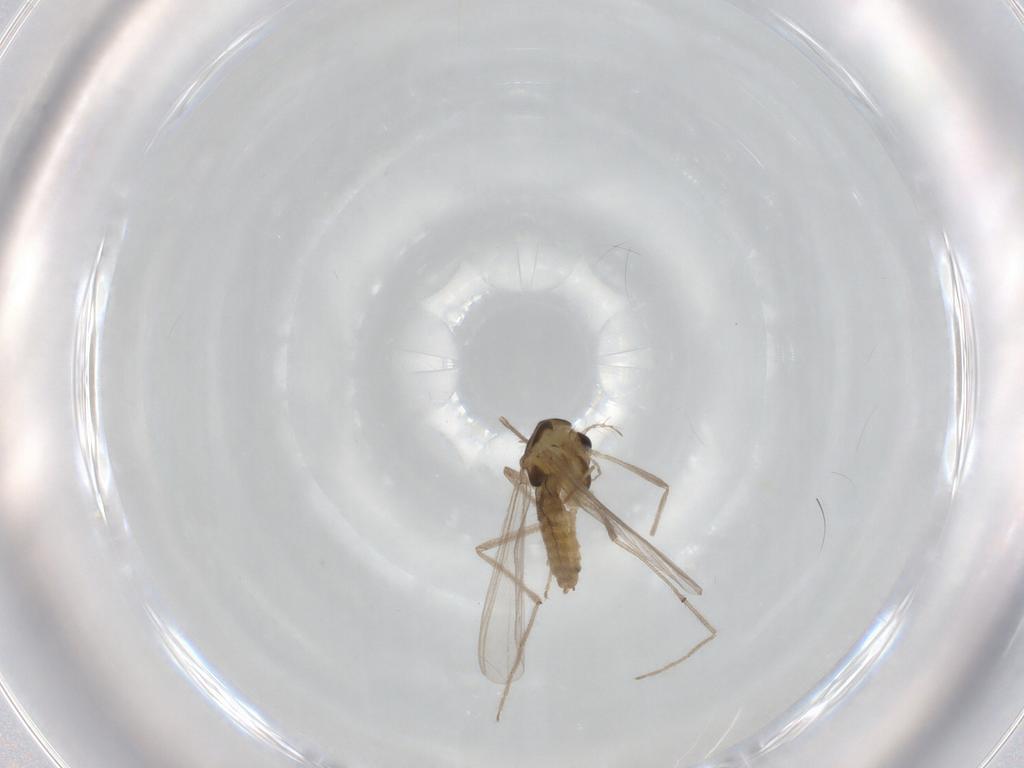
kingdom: Animalia
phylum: Arthropoda
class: Insecta
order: Diptera
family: Chironomidae
